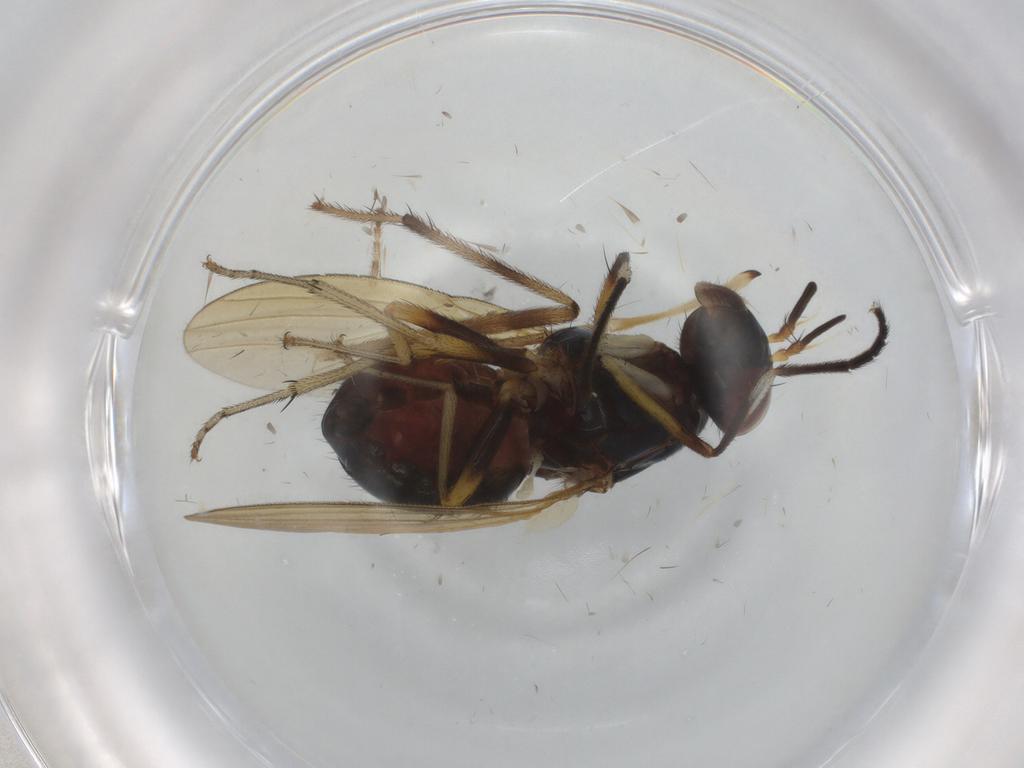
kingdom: Animalia
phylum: Arthropoda
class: Insecta
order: Diptera
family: Lauxaniidae
